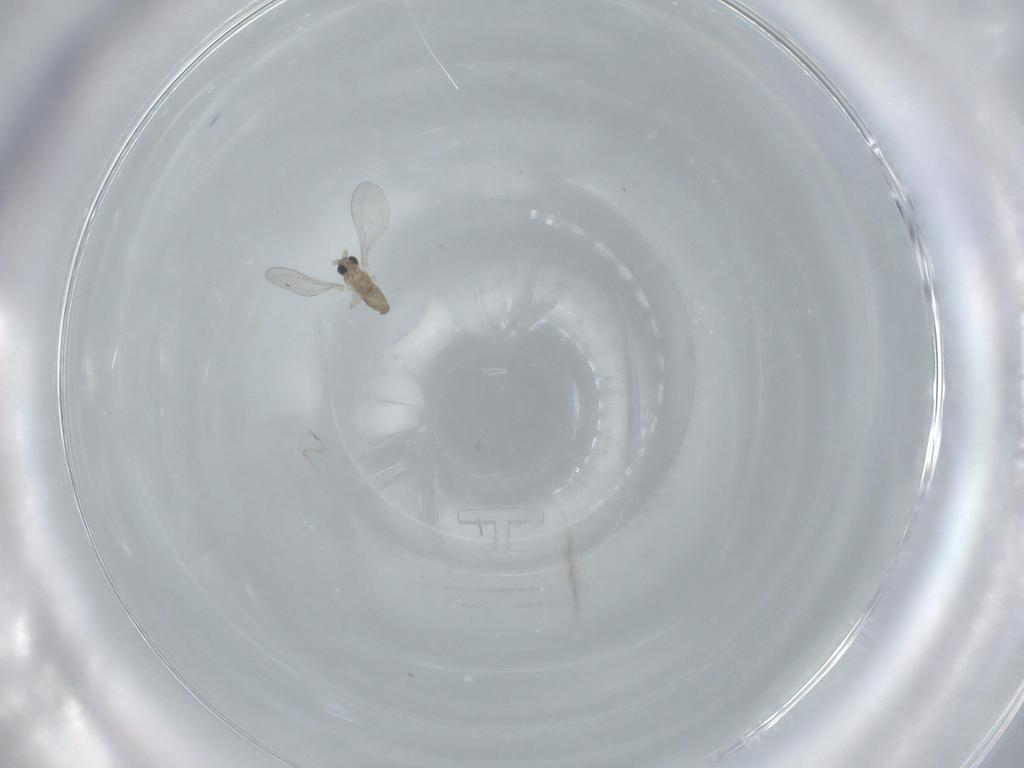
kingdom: Animalia
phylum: Arthropoda
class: Insecta
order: Diptera
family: Cecidomyiidae
